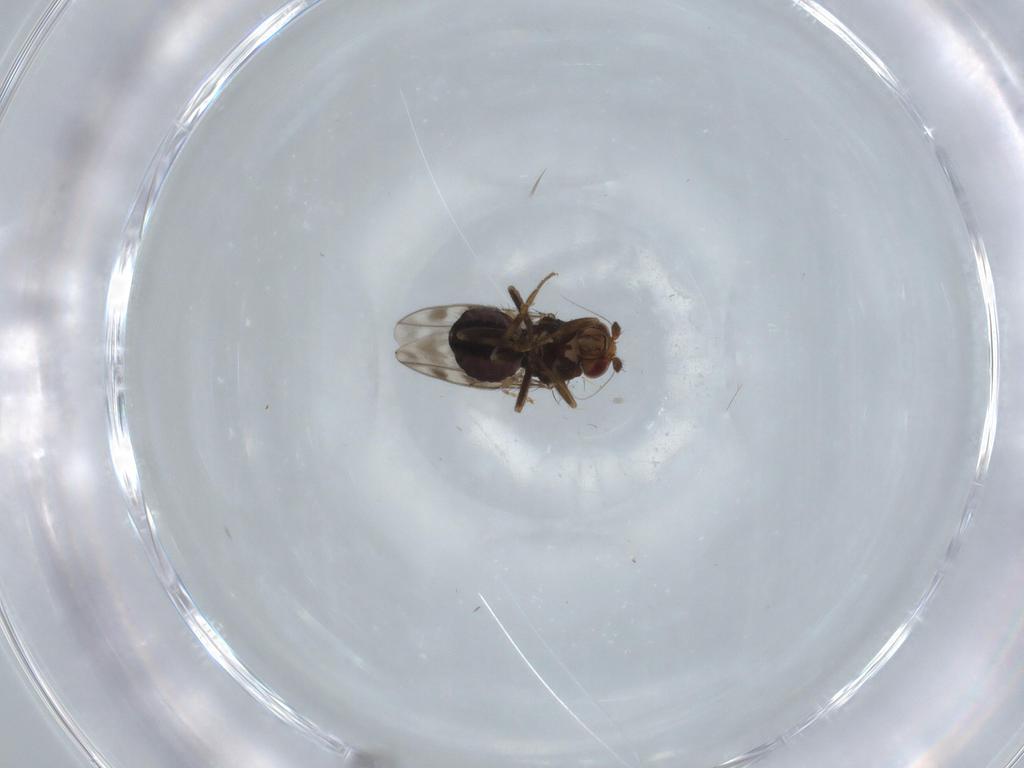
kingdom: Animalia
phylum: Arthropoda
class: Insecta
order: Diptera
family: Sciaridae
